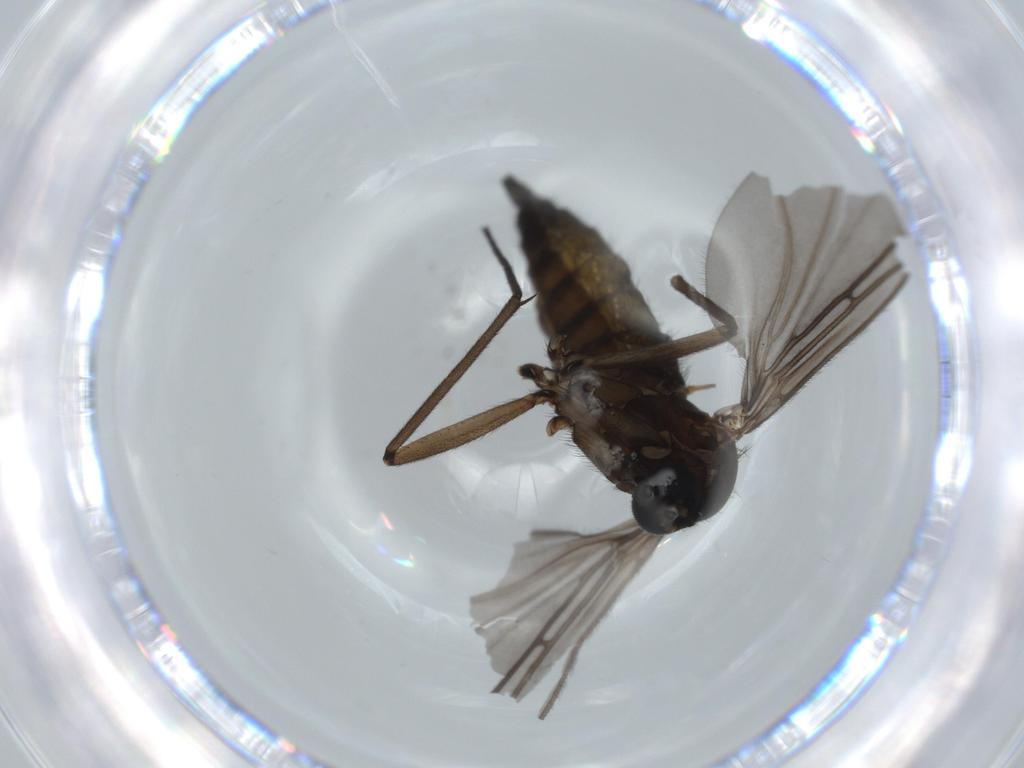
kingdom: Animalia
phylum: Arthropoda
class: Insecta
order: Diptera
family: Sciaridae
